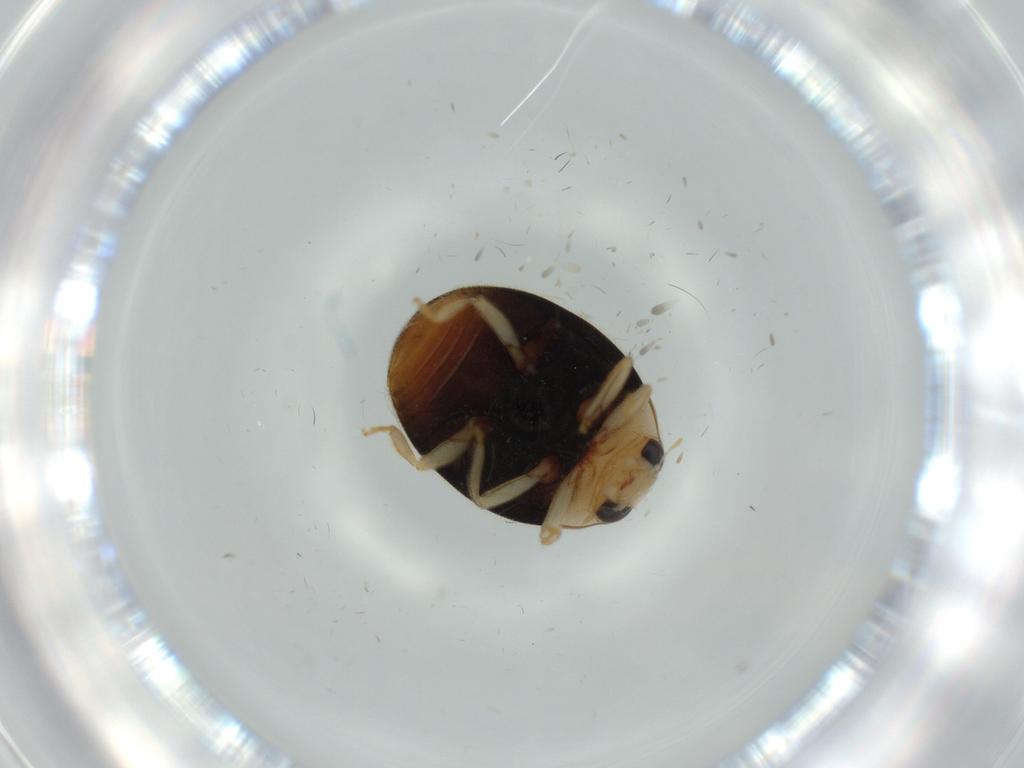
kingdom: Animalia
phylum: Arthropoda
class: Insecta
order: Coleoptera
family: Coccinellidae
